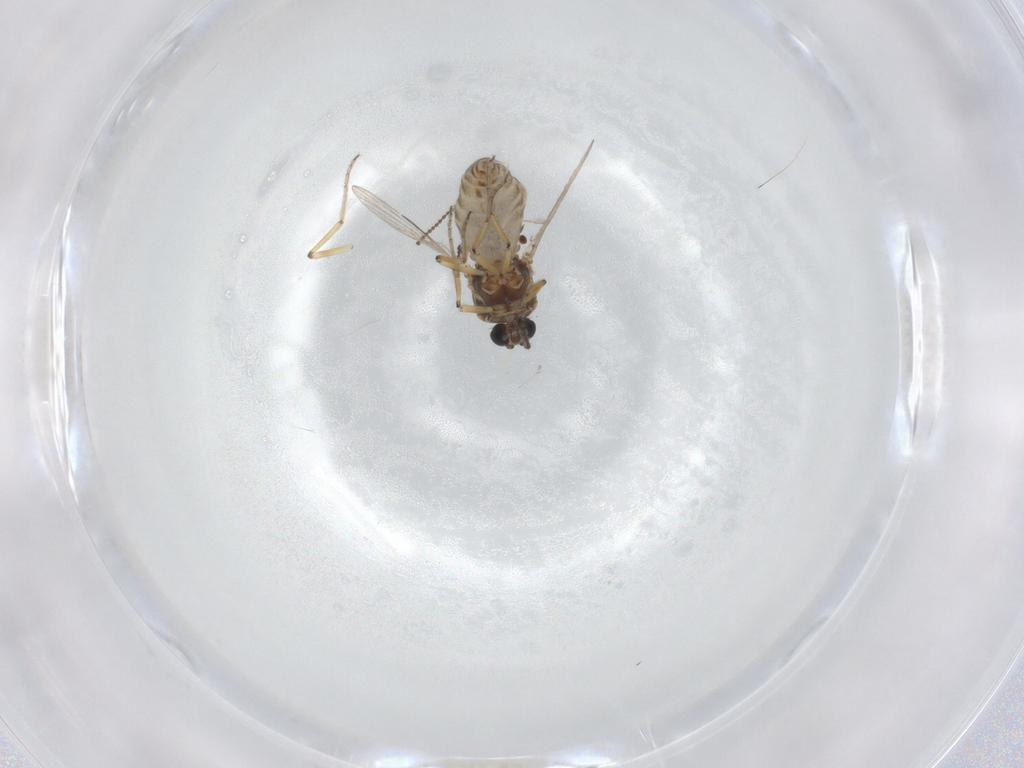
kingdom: Animalia
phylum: Arthropoda
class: Insecta
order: Diptera
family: Ceratopogonidae
